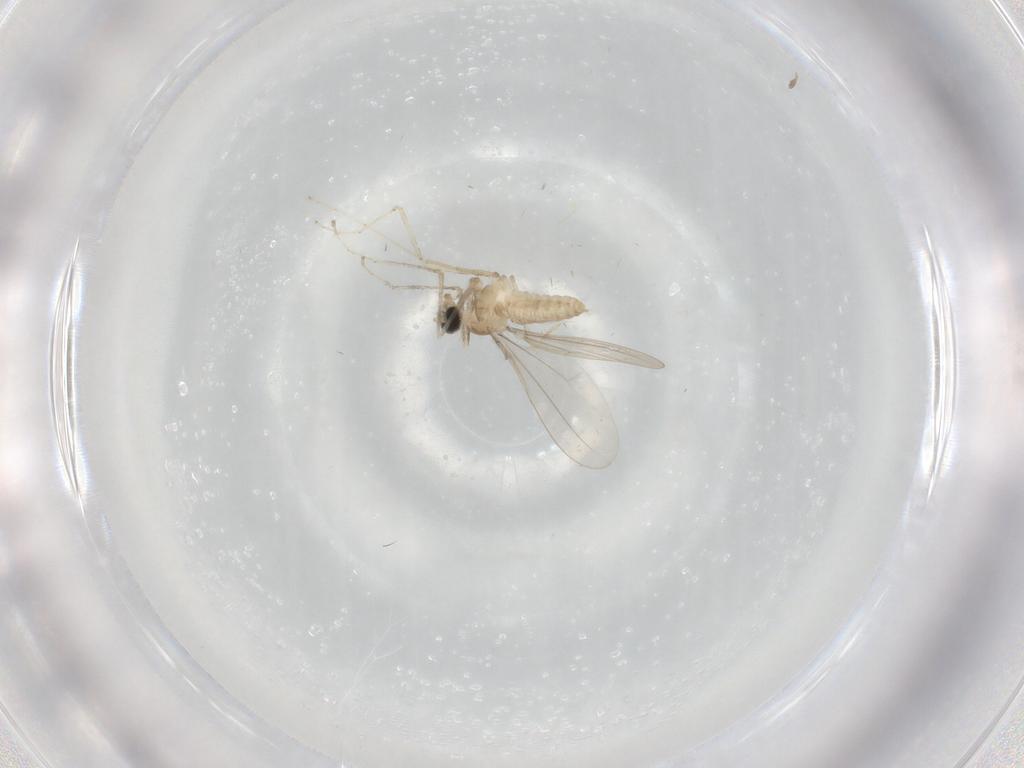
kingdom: Animalia
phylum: Arthropoda
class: Insecta
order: Diptera
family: Cecidomyiidae
